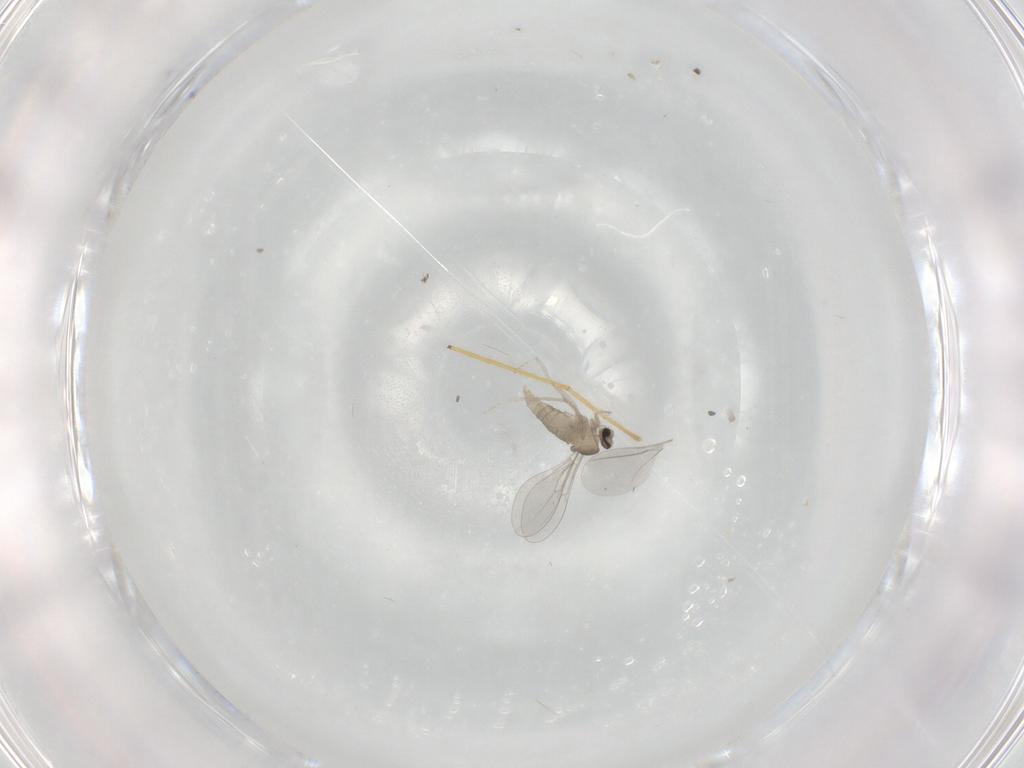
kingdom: Animalia
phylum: Arthropoda
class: Insecta
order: Diptera
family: Chironomidae
